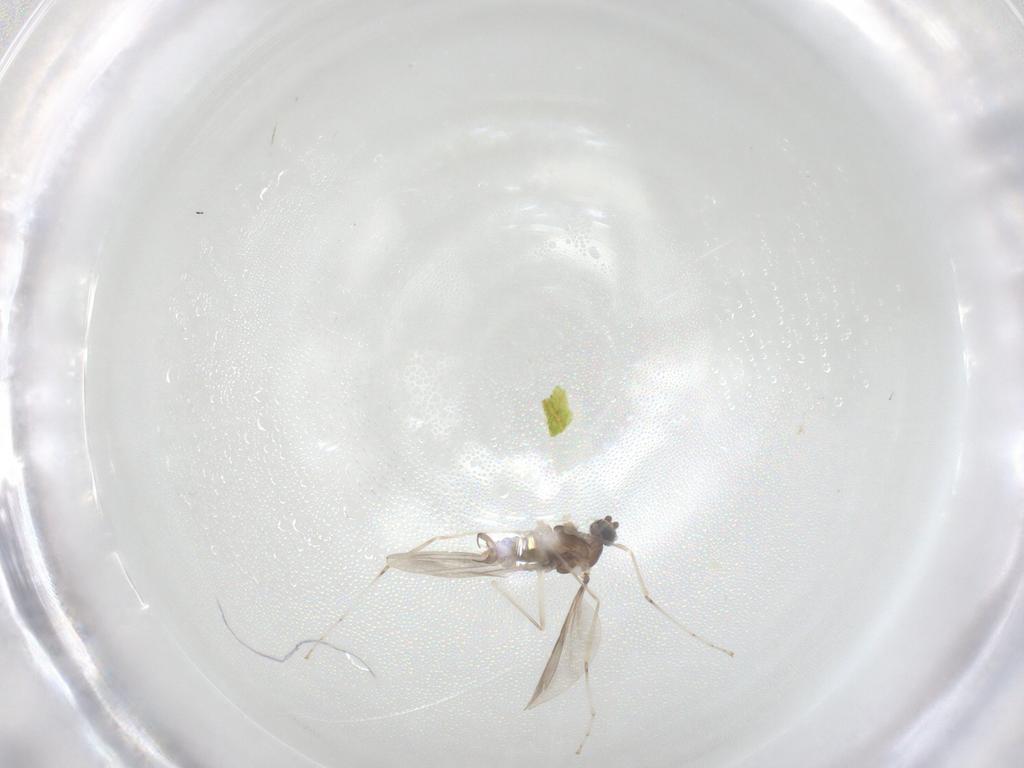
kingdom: Animalia
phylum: Arthropoda
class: Insecta
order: Diptera
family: Cecidomyiidae
